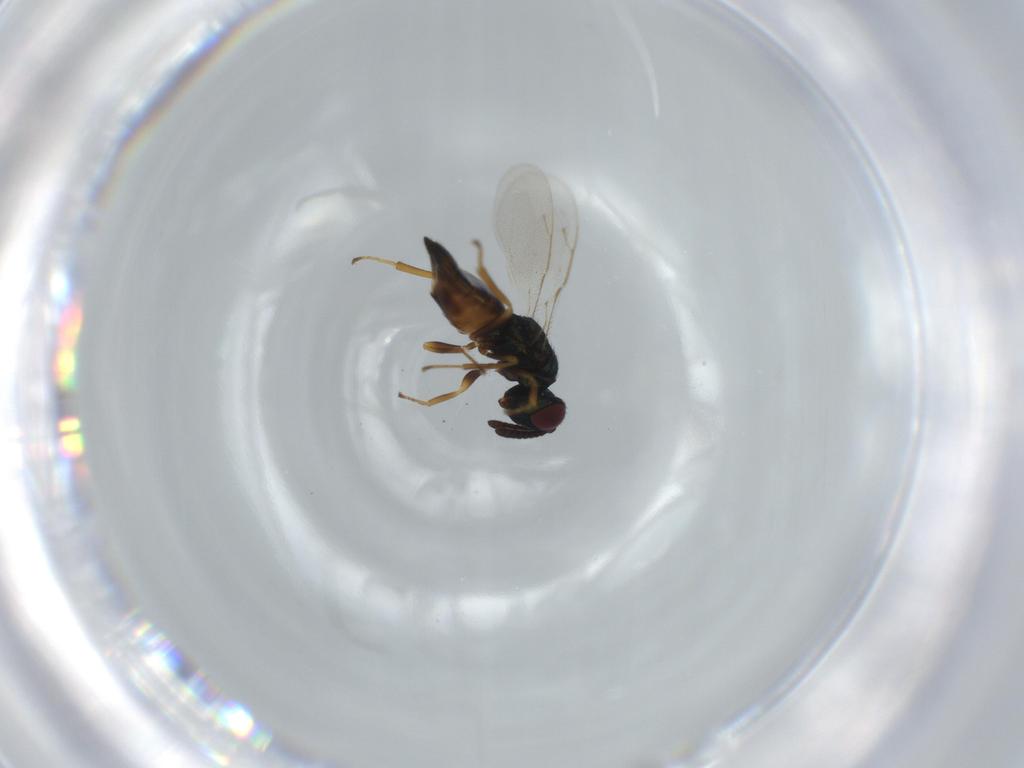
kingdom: Animalia
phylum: Arthropoda
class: Insecta
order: Hymenoptera
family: Pteromalidae
